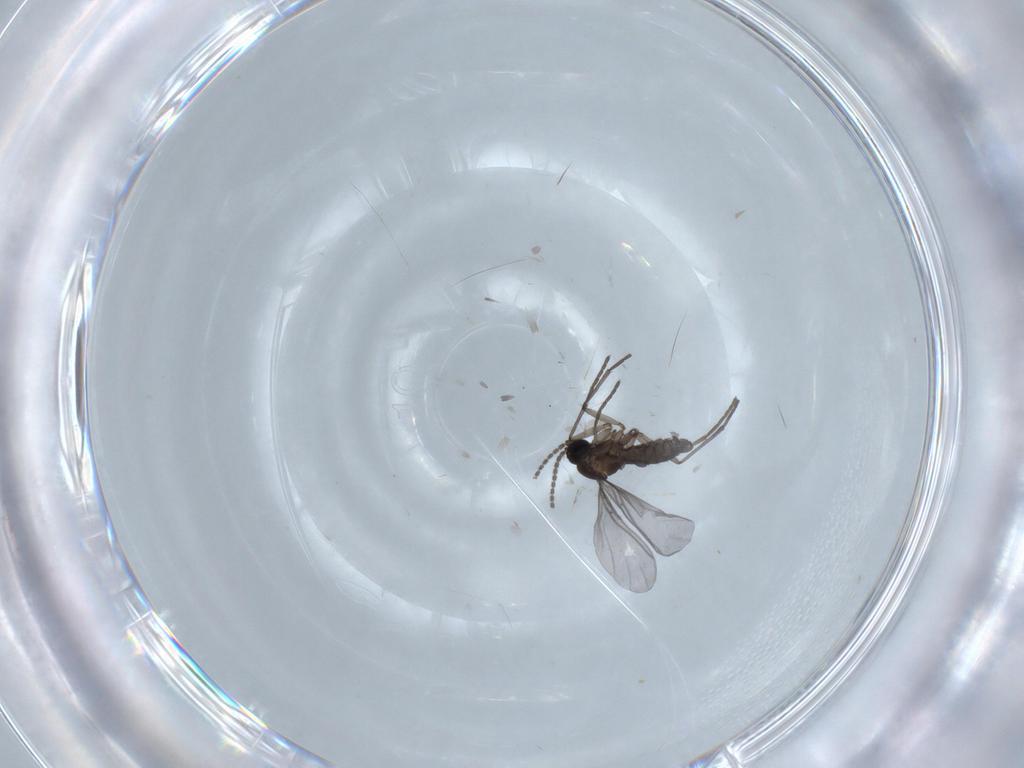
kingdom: Animalia
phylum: Arthropoda
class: Insecta
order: Diptera
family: Sciaridae
